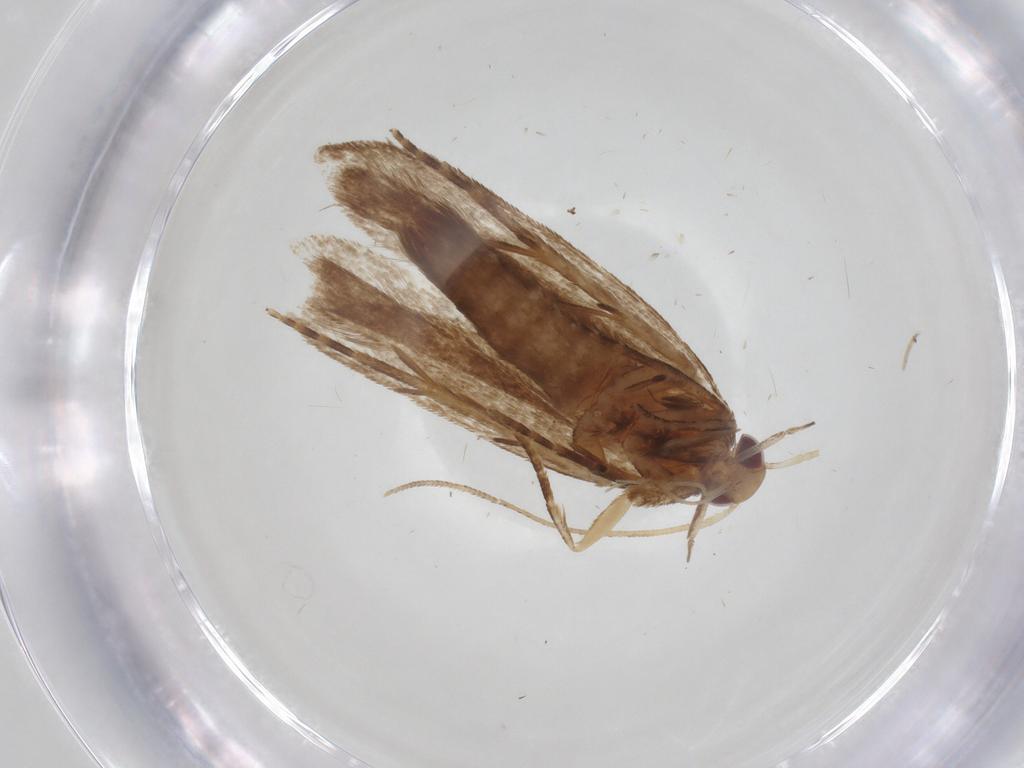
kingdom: Animalia
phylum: Arthropoda
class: Insecta
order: Lepidoptera
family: Gelechiidae
